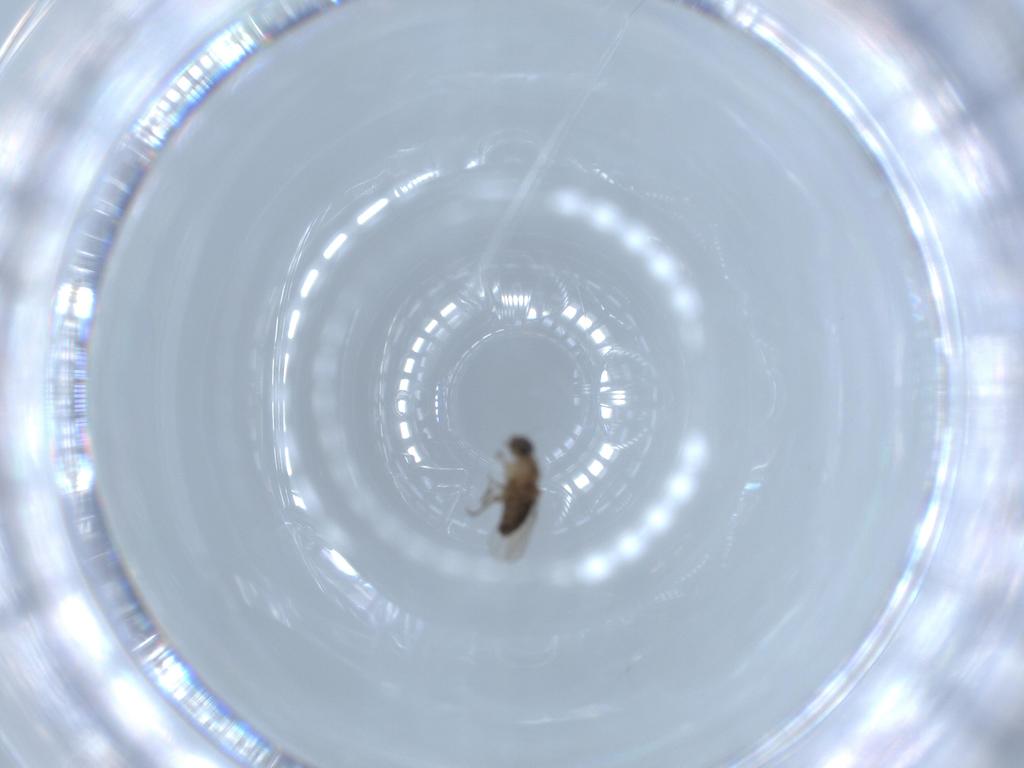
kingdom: Animalia
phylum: Arthropoda
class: Insecta
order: Diptera
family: Phoridae
